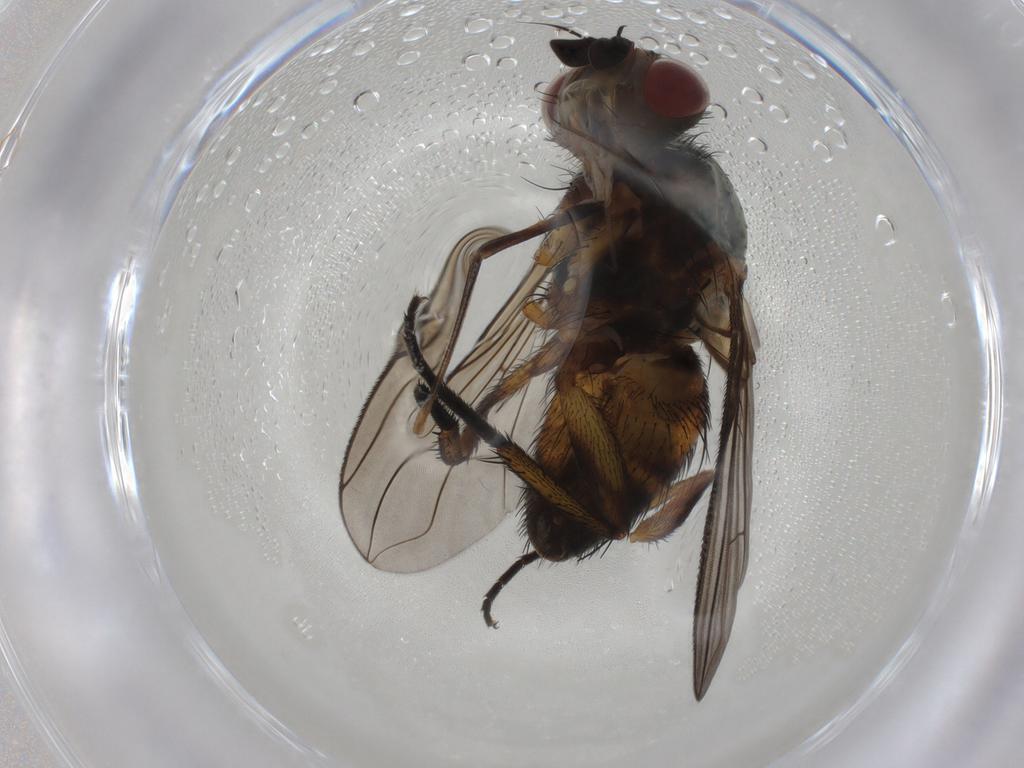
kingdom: Animalia
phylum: Arthropoda
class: Insecta
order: Diptera
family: Tachinidae
